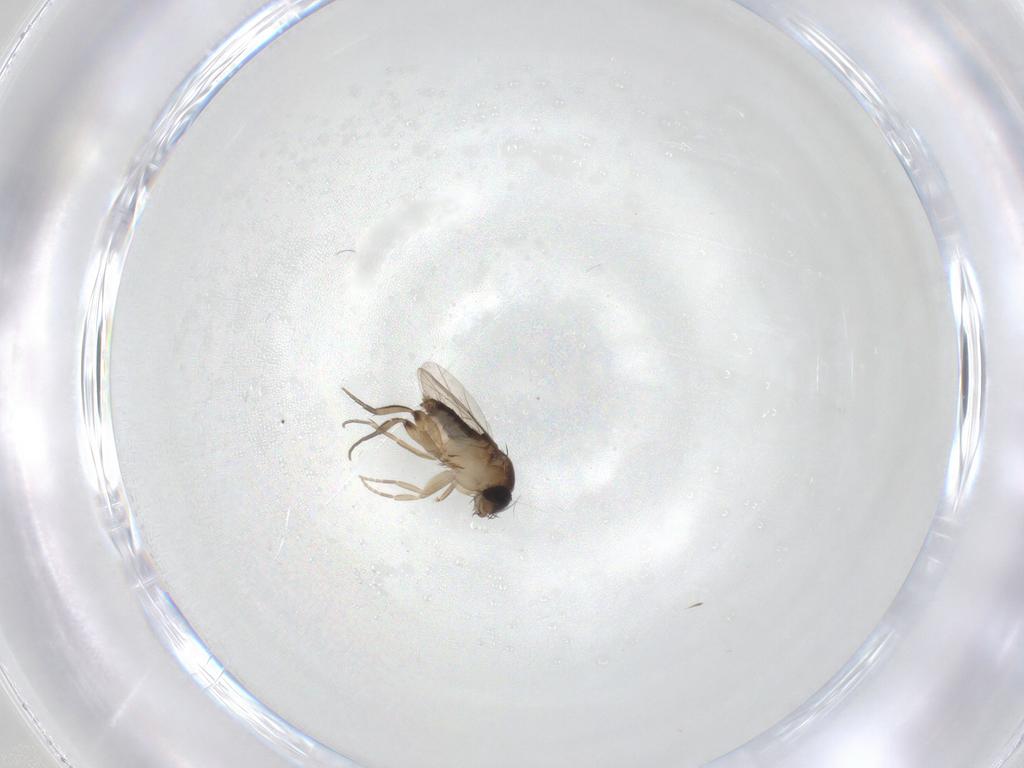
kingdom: Animalia
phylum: Arthropoda
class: Insecta
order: Diptera
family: Phoridae
